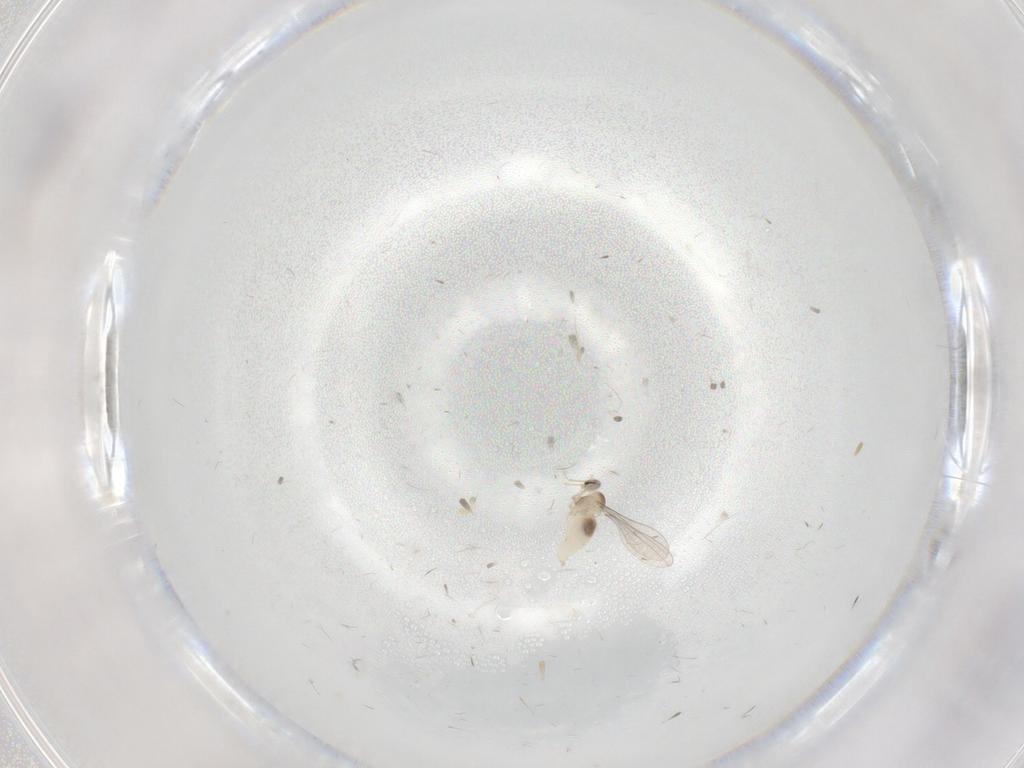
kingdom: Animalia
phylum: Arthropoda
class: Insecta
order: Diptera
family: Cecidomyiidae
